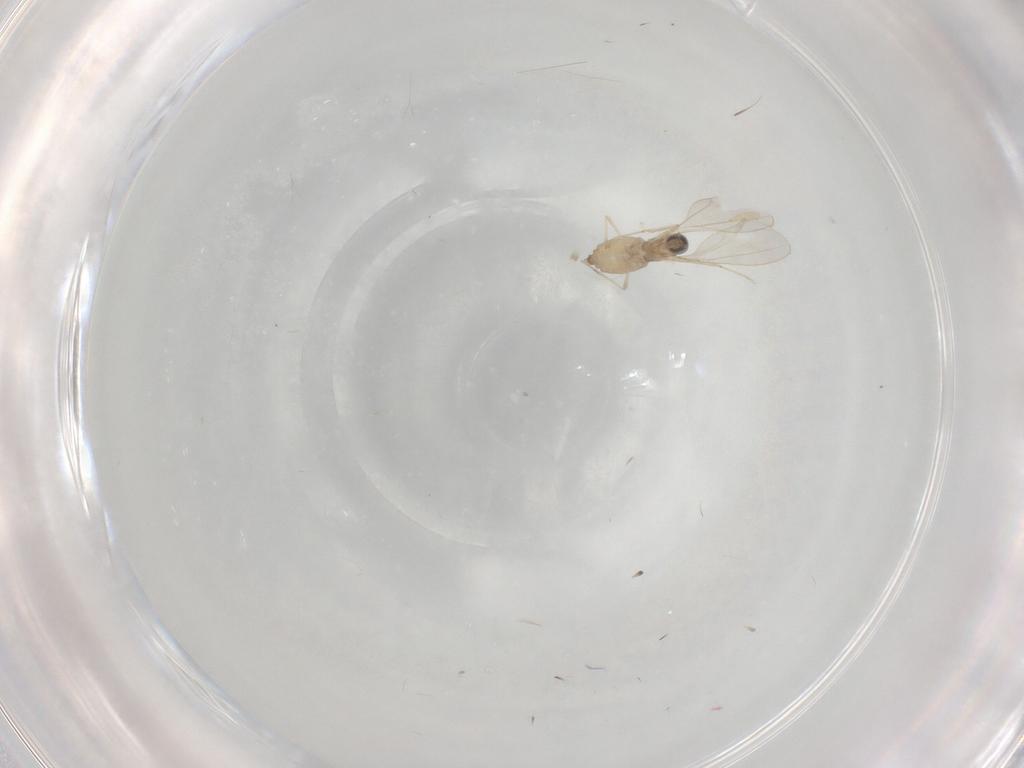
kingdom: Animalia
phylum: Arthropoda
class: Insecta
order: Diptera
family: Cecidomyiidae
